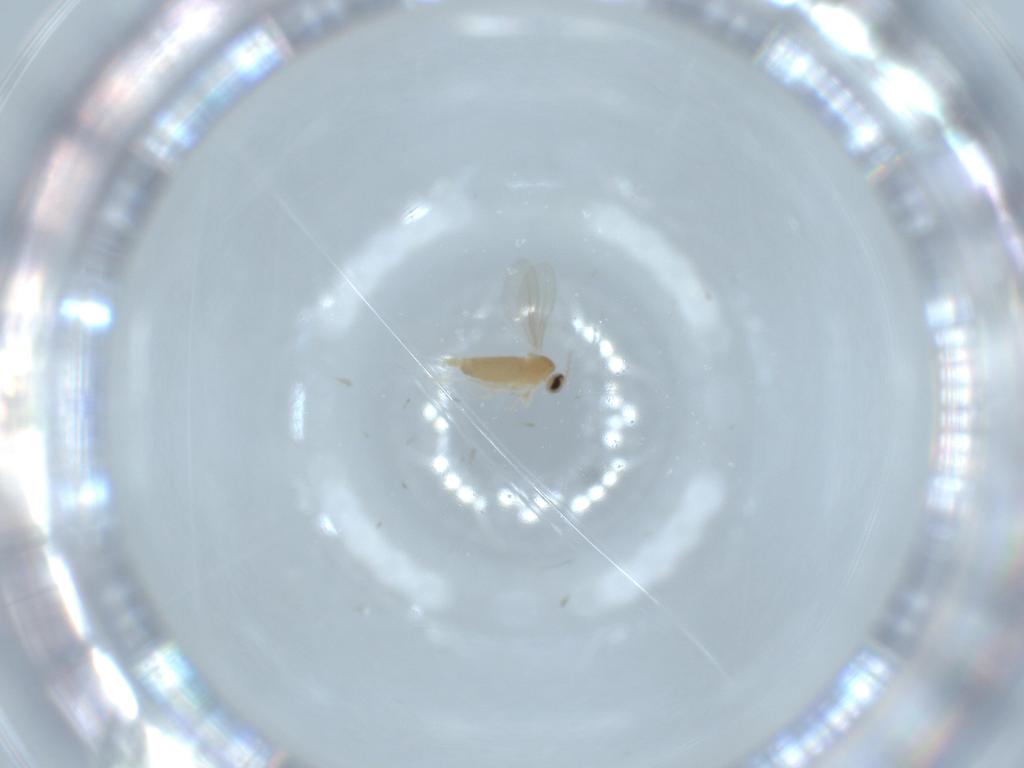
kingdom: Animalia
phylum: Arthropoda
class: Insecta
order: Diptera
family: Cecidomyiidae
